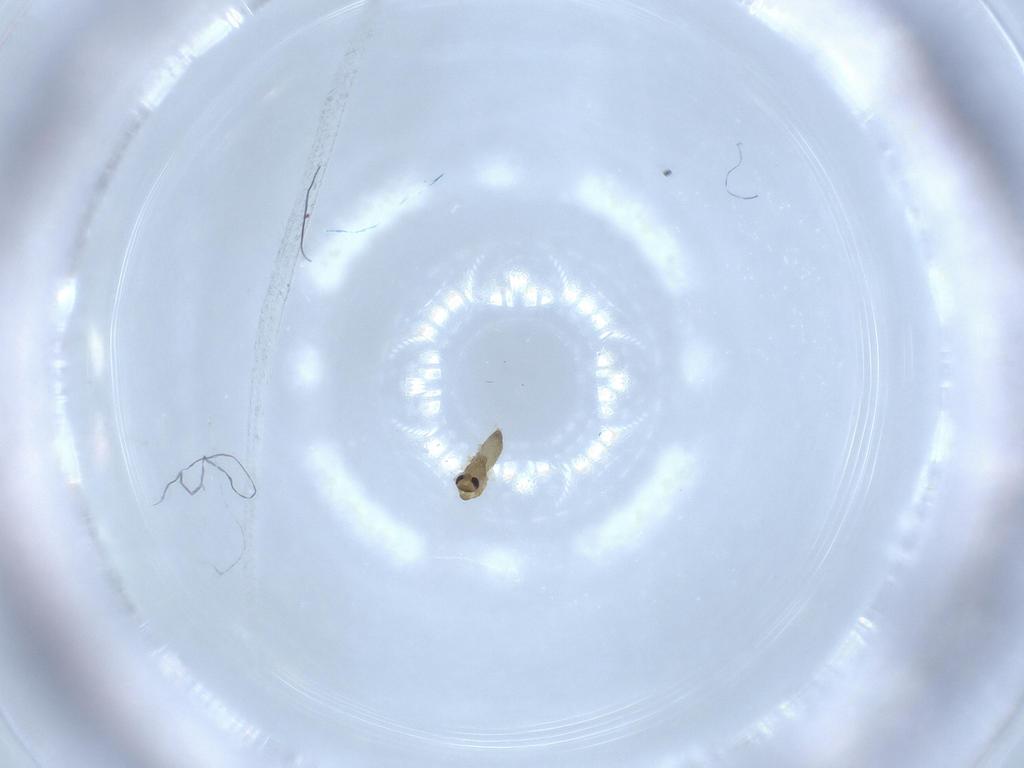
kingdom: Animalia
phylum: Arthropoda
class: Insecta
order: Diptera
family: Chironomidae
